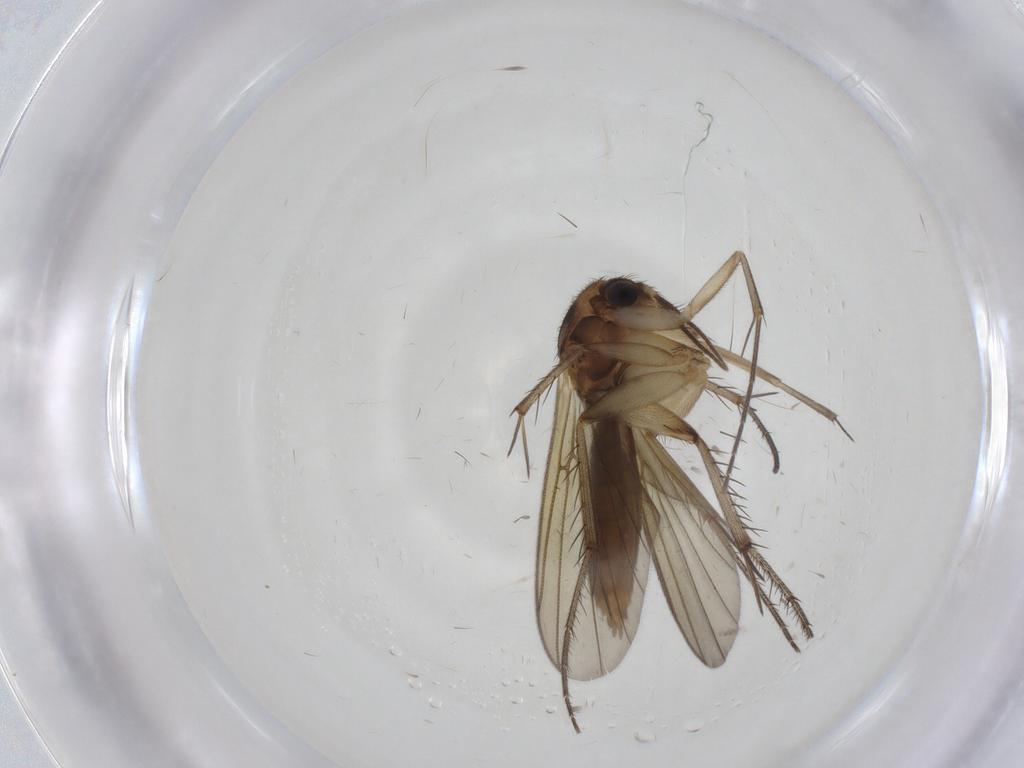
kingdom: Animalia
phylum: Arthropoda
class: Insecta
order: Diptera
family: Mycetophilidae
